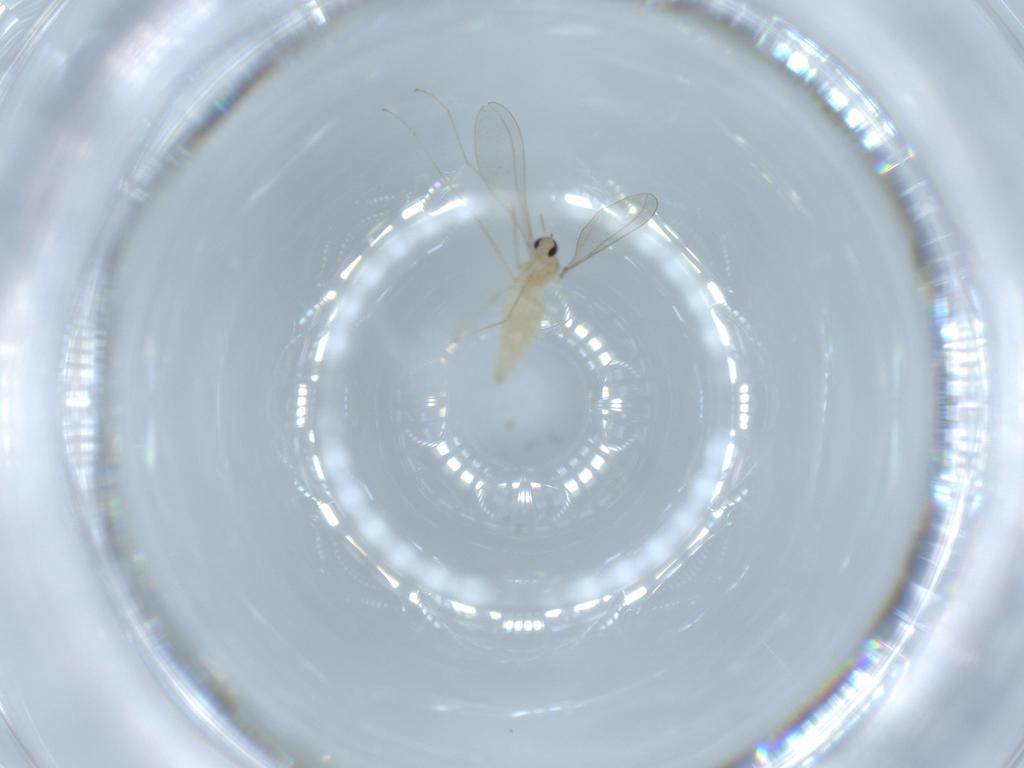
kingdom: Animalia
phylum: Arthropoda
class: Insecta
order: Diptera
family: Cecidomyiidae
